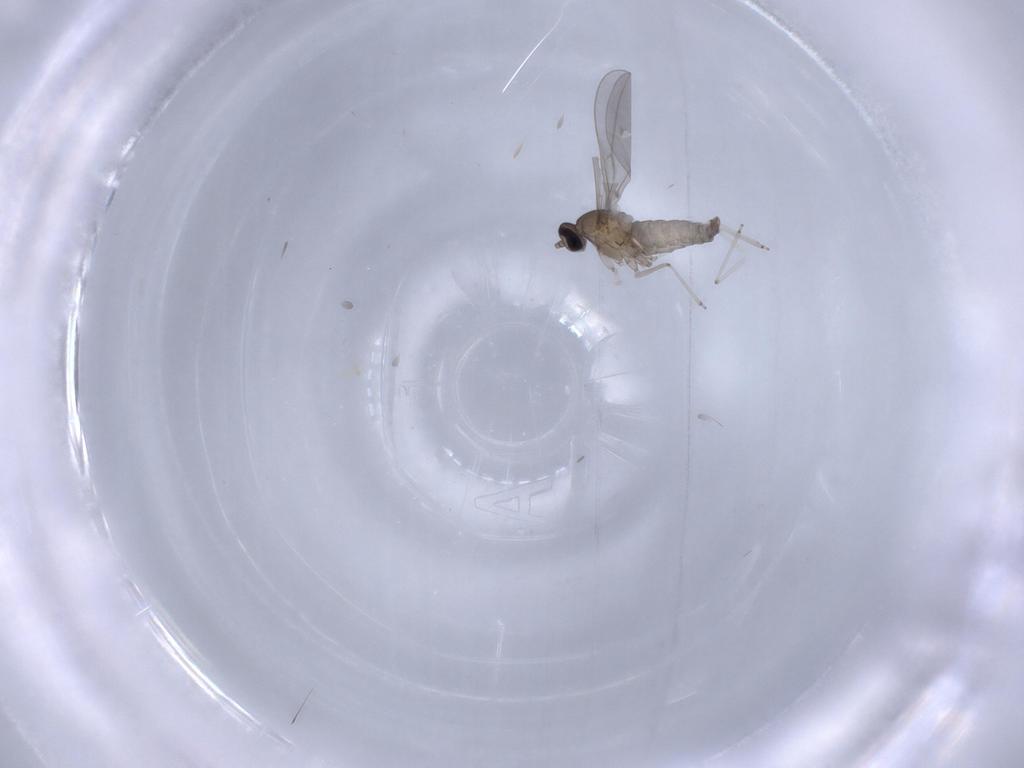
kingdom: Animalia
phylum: Arthropoda
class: Insecta
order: Diptera
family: Cecidomyiidae
